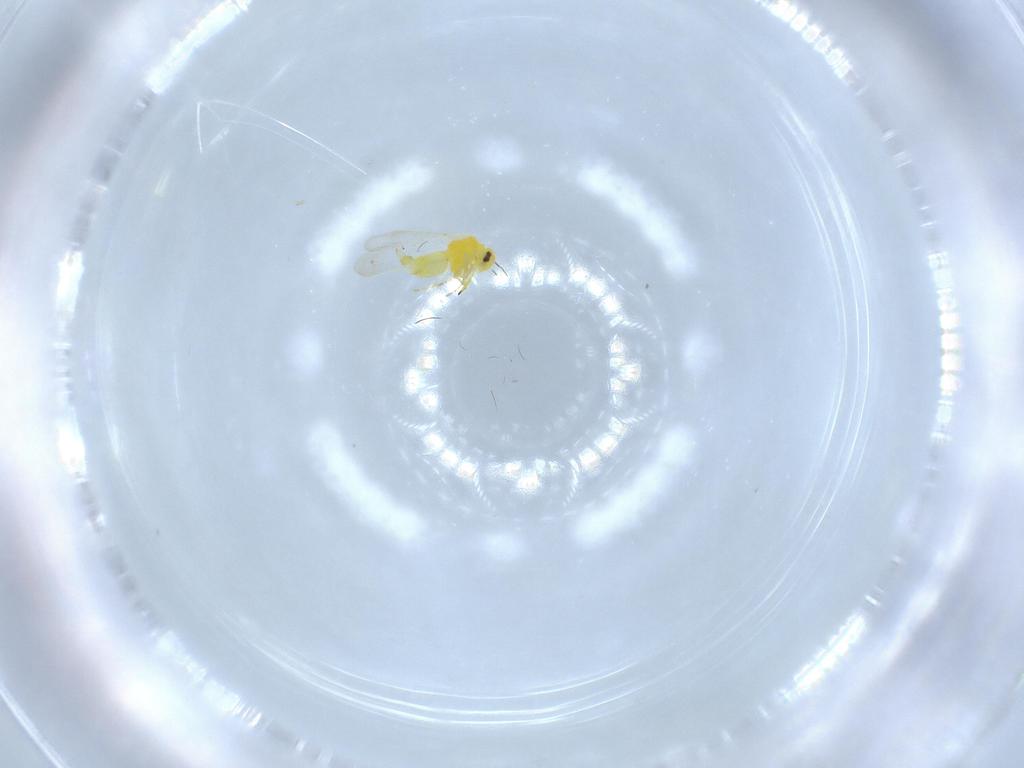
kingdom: Animalia
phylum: Arthropoda
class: Insecta
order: Hemiptera
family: Aleyrodidae
